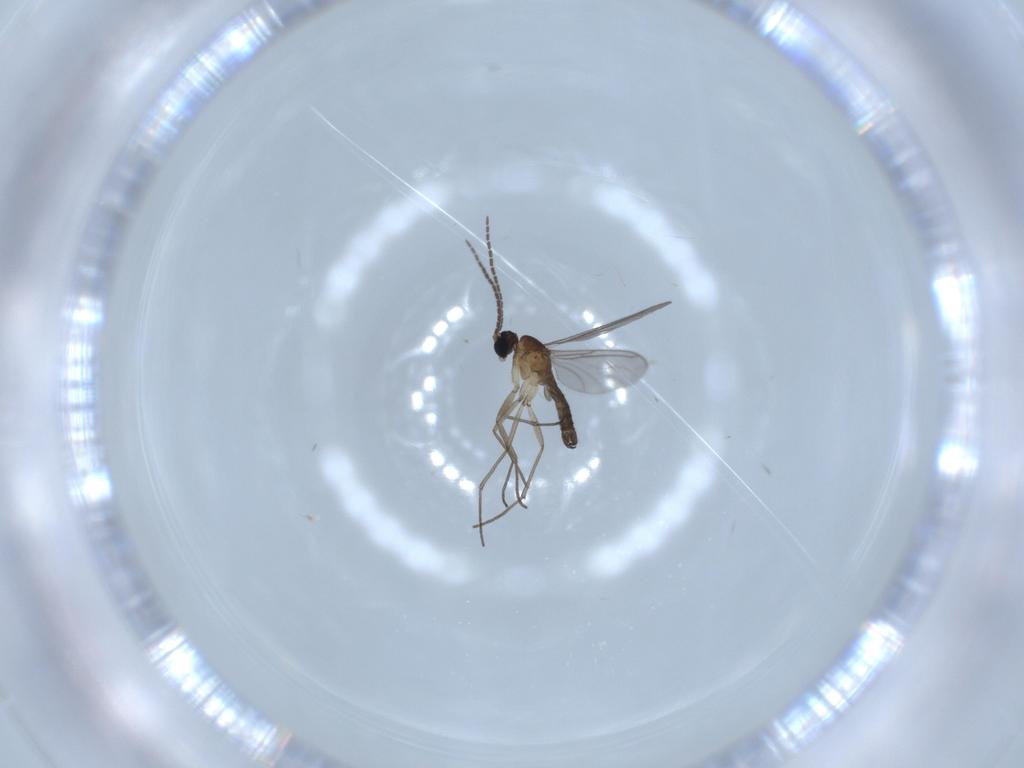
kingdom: Animalia
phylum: Arthropoda
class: Insecta
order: Diptera
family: Sciaridae
